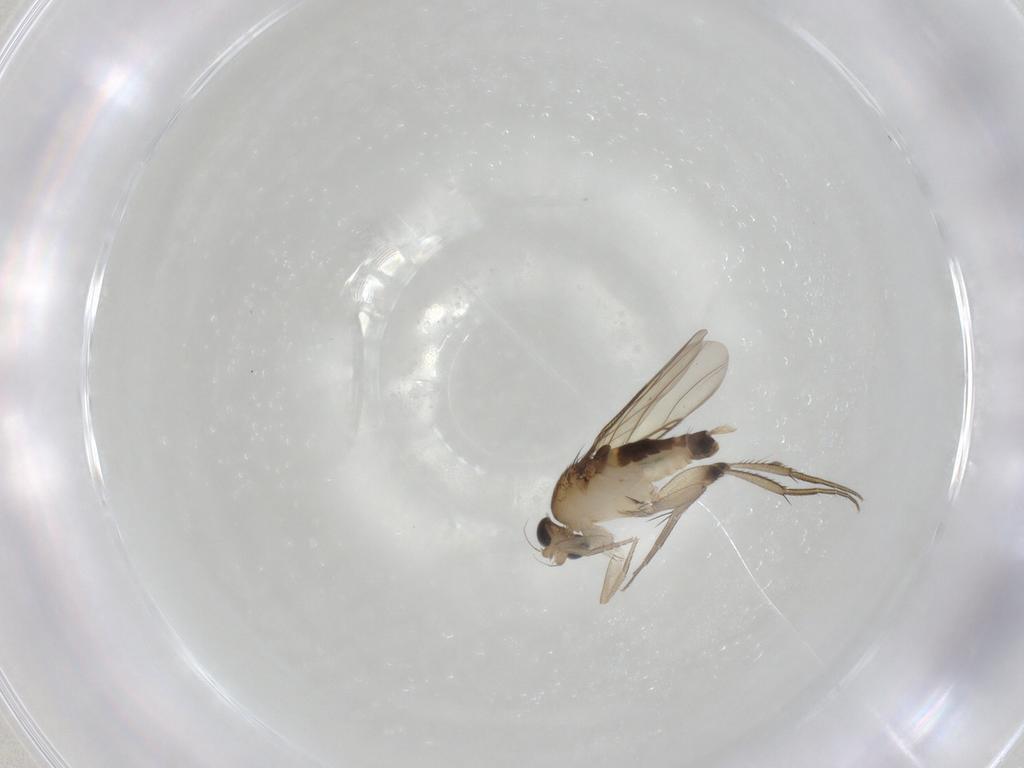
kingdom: Animalia
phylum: Arthropoda
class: Insecta
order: Diptera
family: Phoridae
